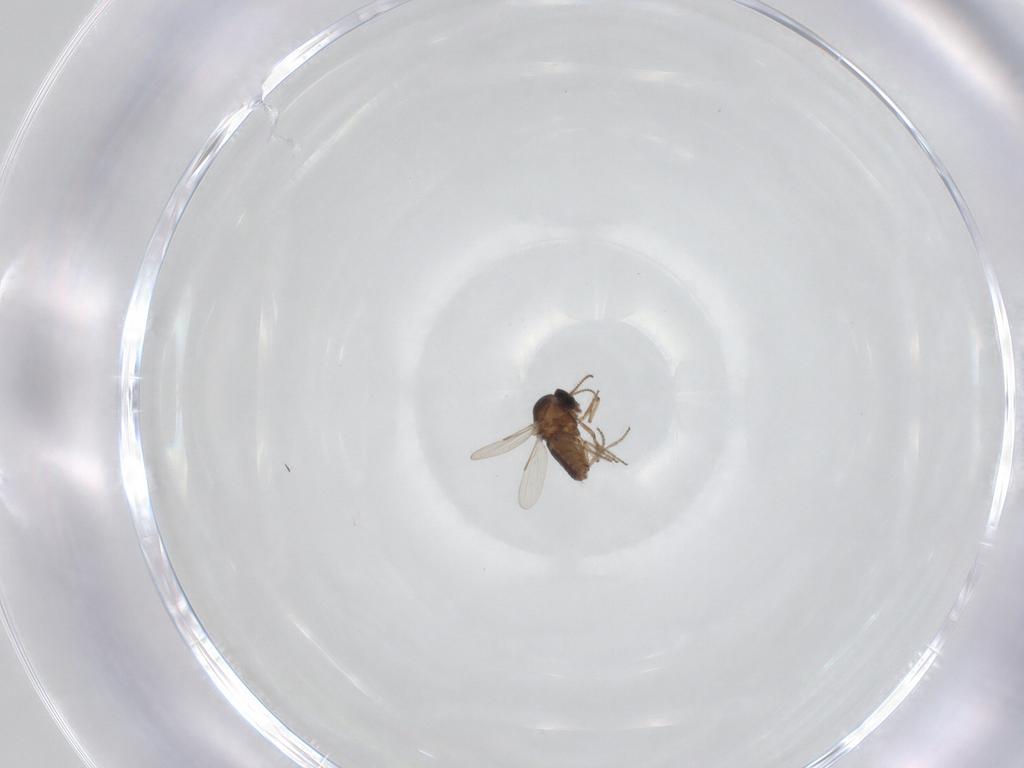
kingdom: Animalia
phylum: Arthropoda
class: Insecta
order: Diptera
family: Ceratopogonidae
